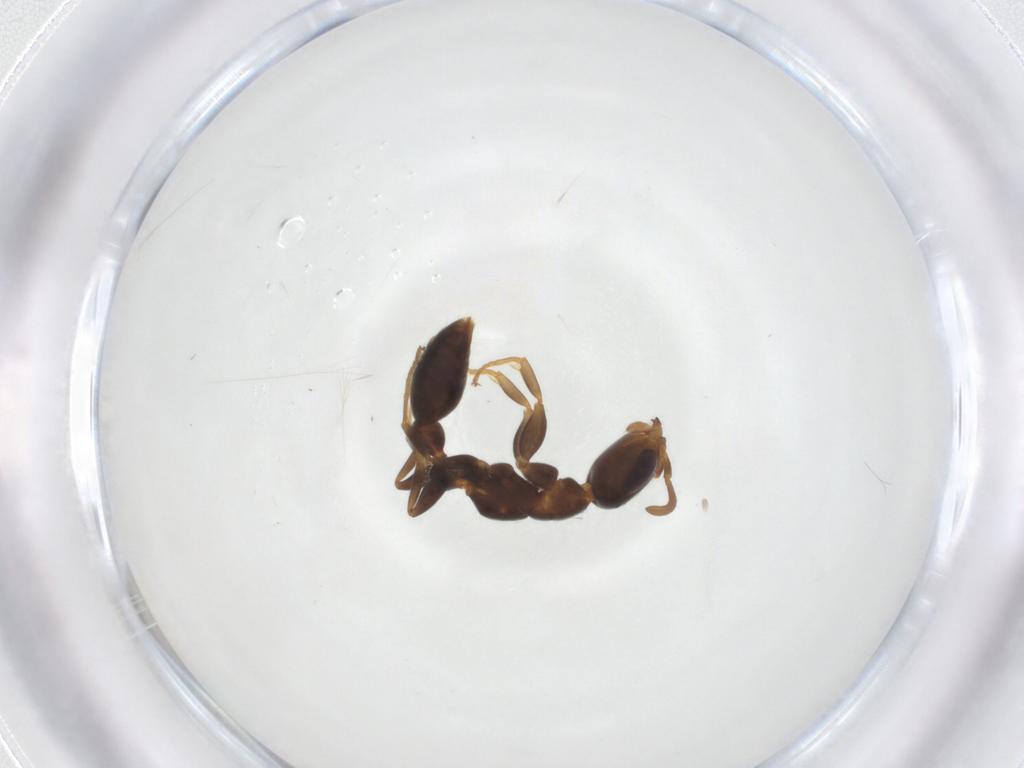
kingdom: Animalia
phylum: Arthropoda
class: Insecta
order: Hymenoptera
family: Formicidae
